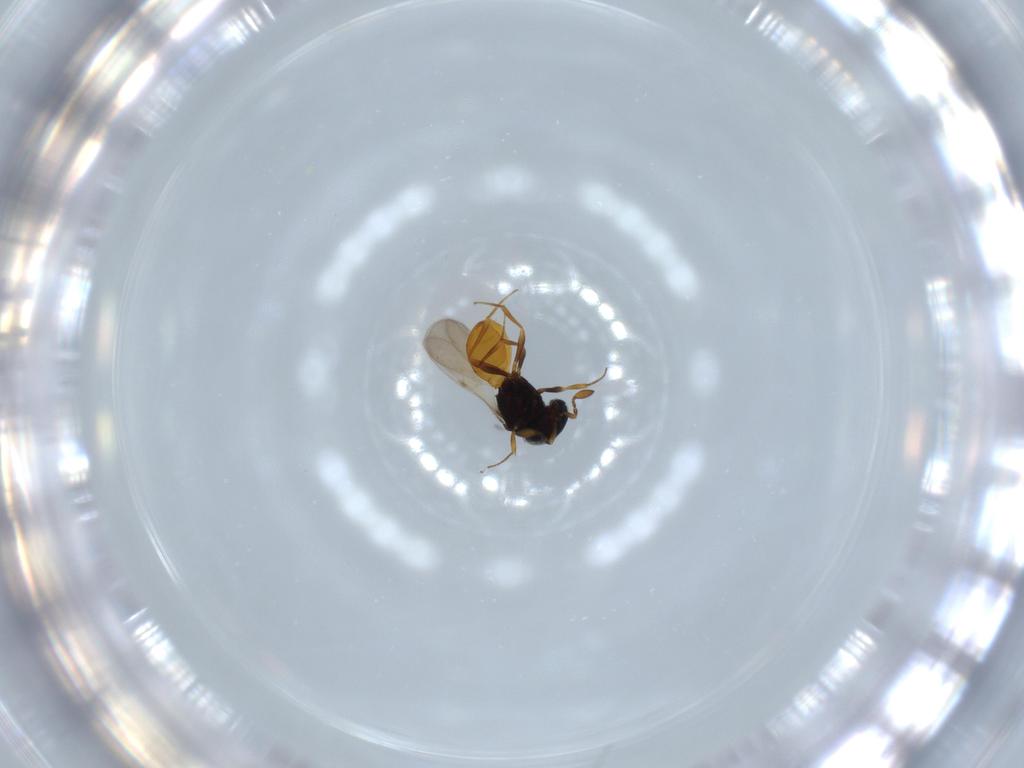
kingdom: Animalia
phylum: Arthropoda
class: Insecta
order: Hymenoptera
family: Scelionidae
